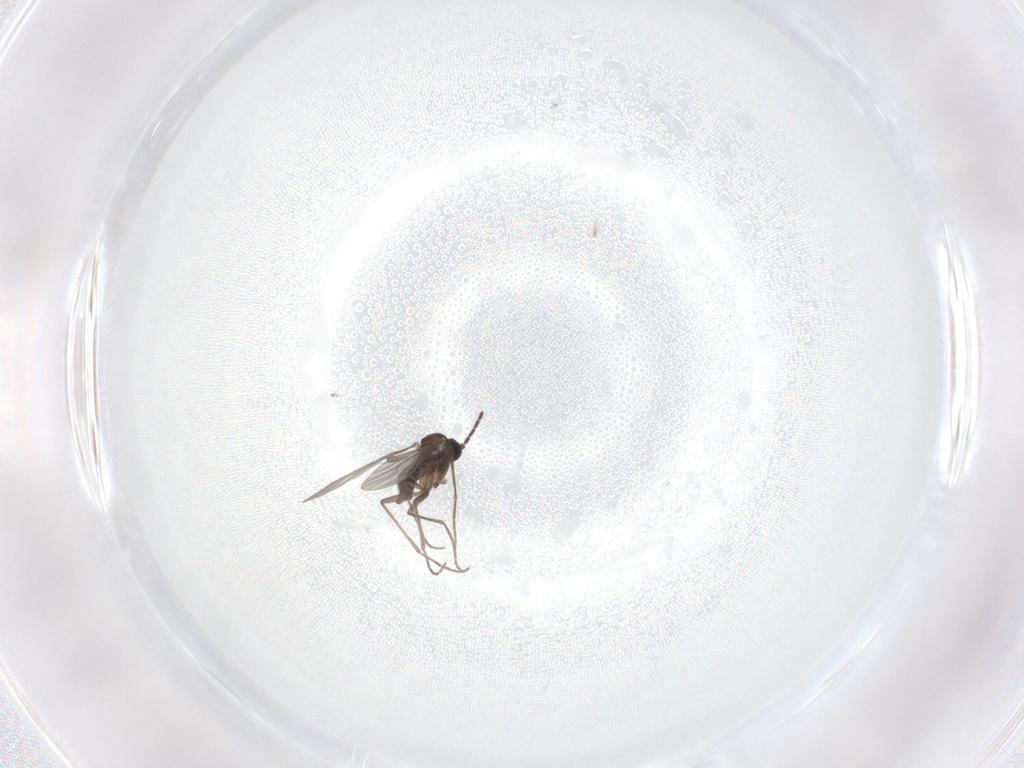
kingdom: Animalia
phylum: Arthropoda
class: Insecta
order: Diptera
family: Sciaridae
